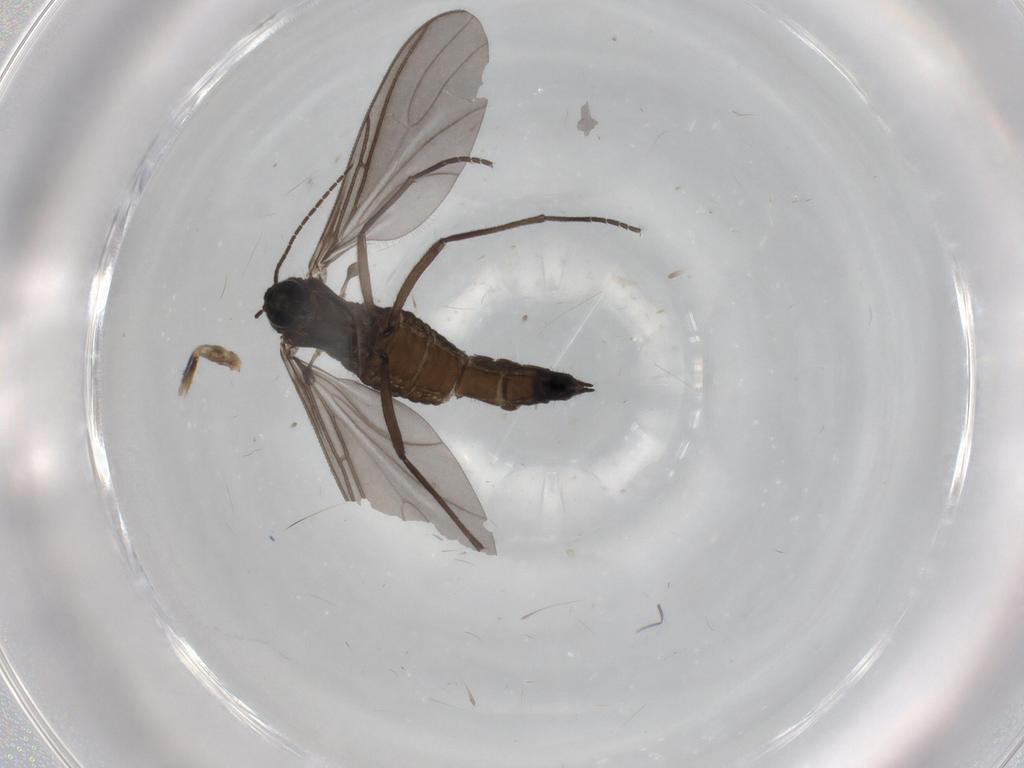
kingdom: Animalia
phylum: Arthropoda
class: Insecta
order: Diptera
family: Sciaridae
